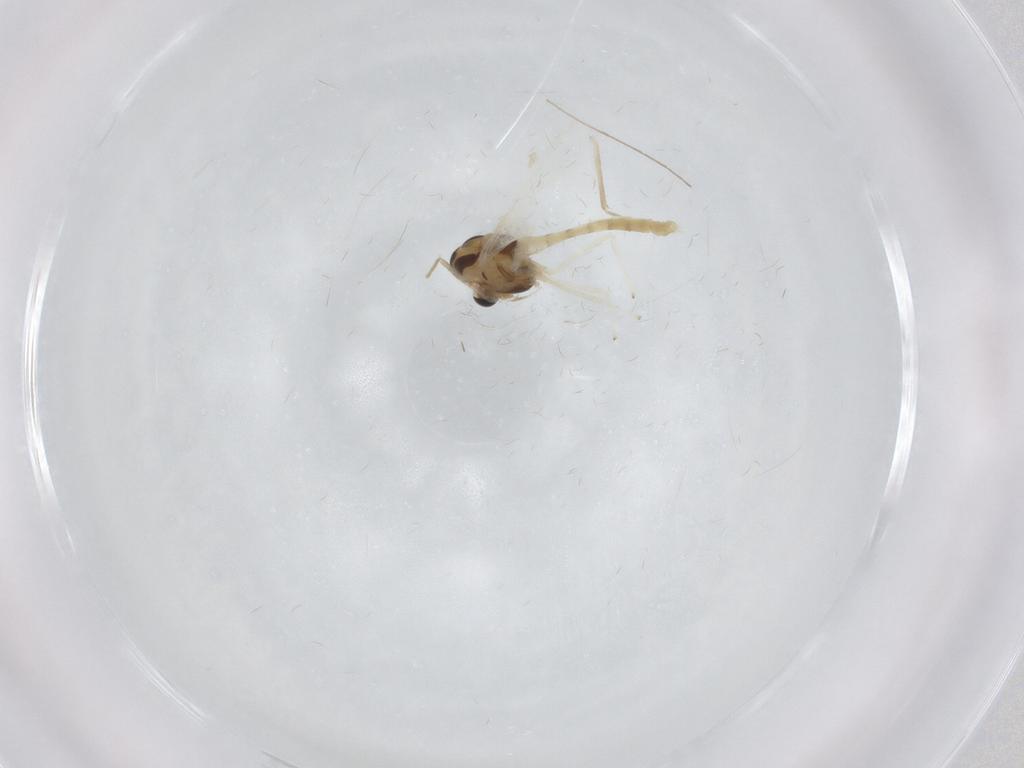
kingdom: Animalia
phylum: Arthropoda
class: Insecta
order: Diptera
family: Chironomidae
